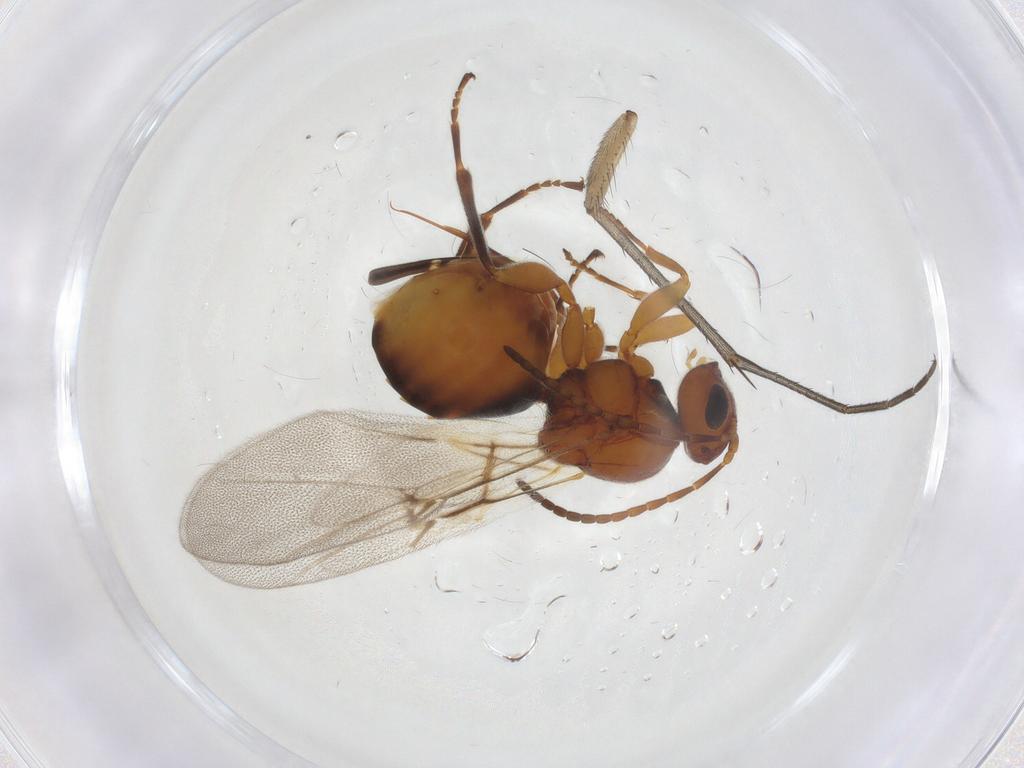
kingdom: Animalia
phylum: Arthropoda
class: Insecta
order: Hymenoptera
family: Cynipidae
